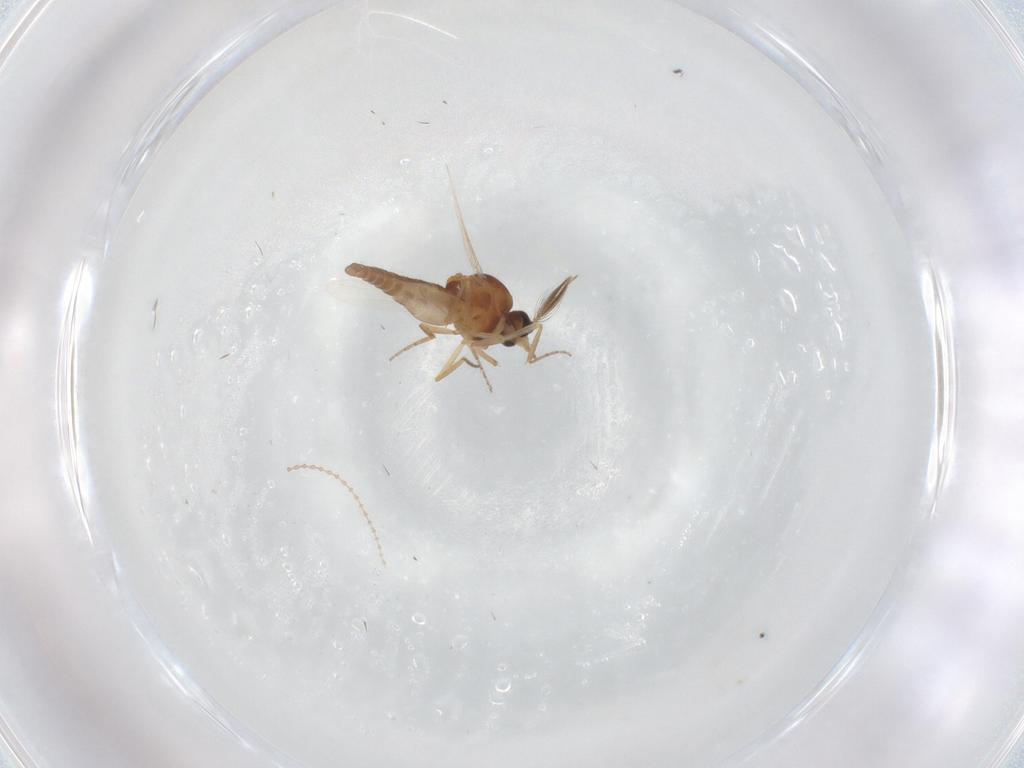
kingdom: Animalia
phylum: Arthropoda
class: Insecta
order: Diptera
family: Ceratopogonidae
